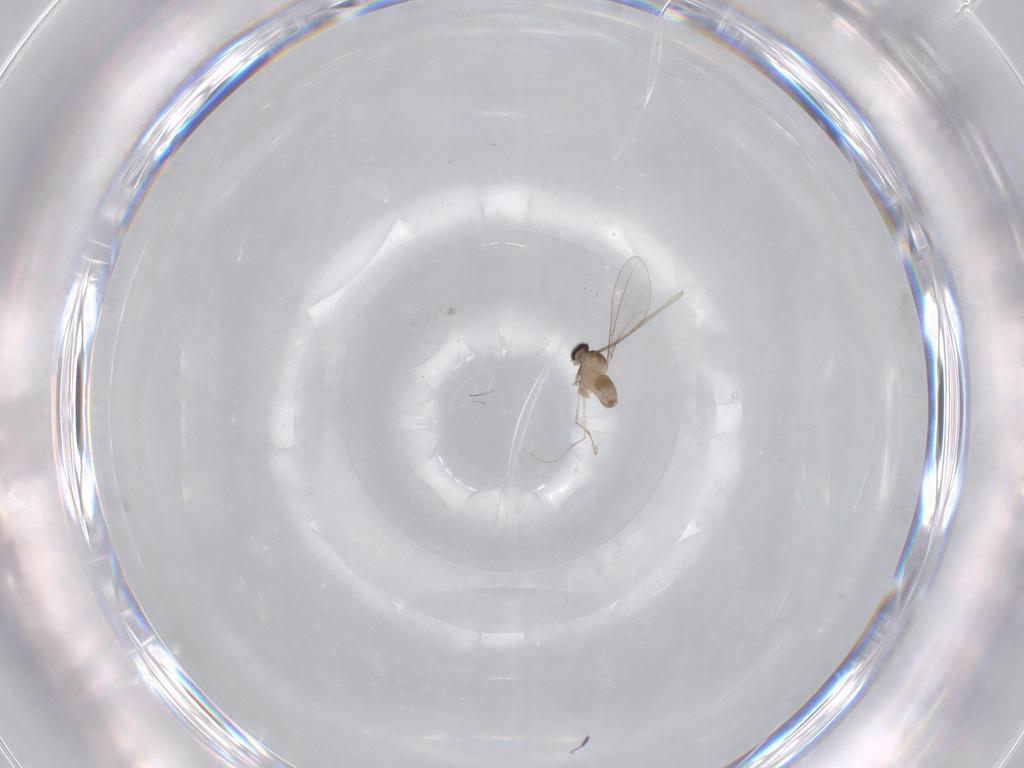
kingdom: Animalia
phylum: Arthropoda
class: Insecta
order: Diptera
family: Cecidomyiidae
